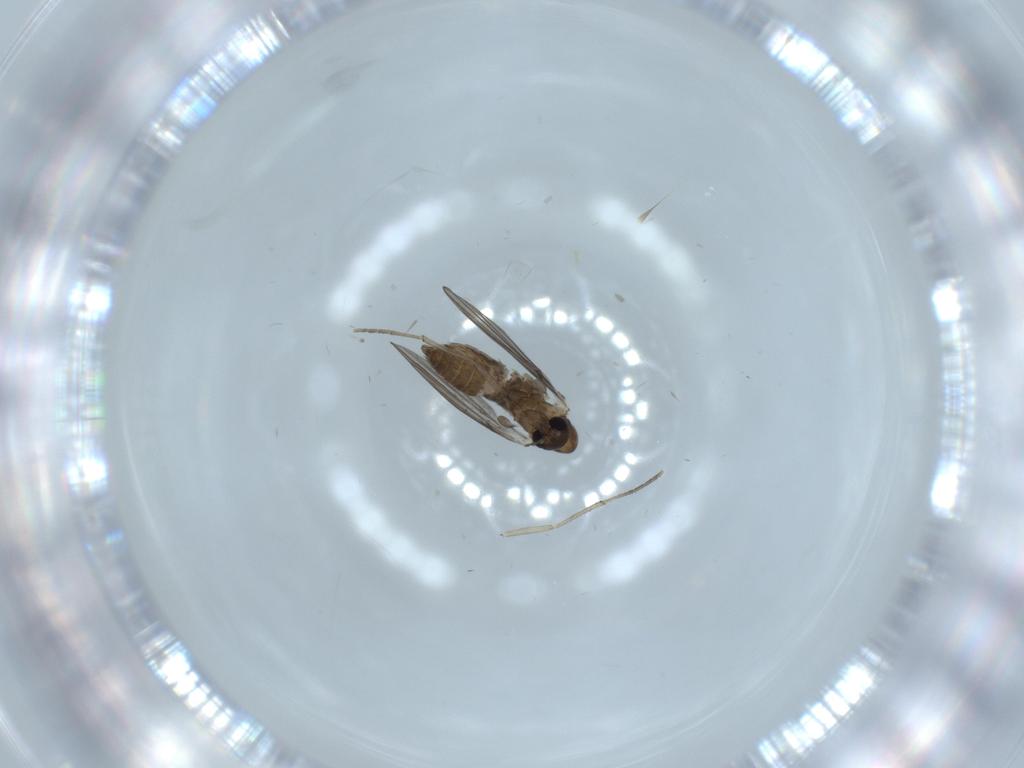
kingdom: Animalia
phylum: Arthropoda
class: Insecta
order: Diptera
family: Psychodidae
